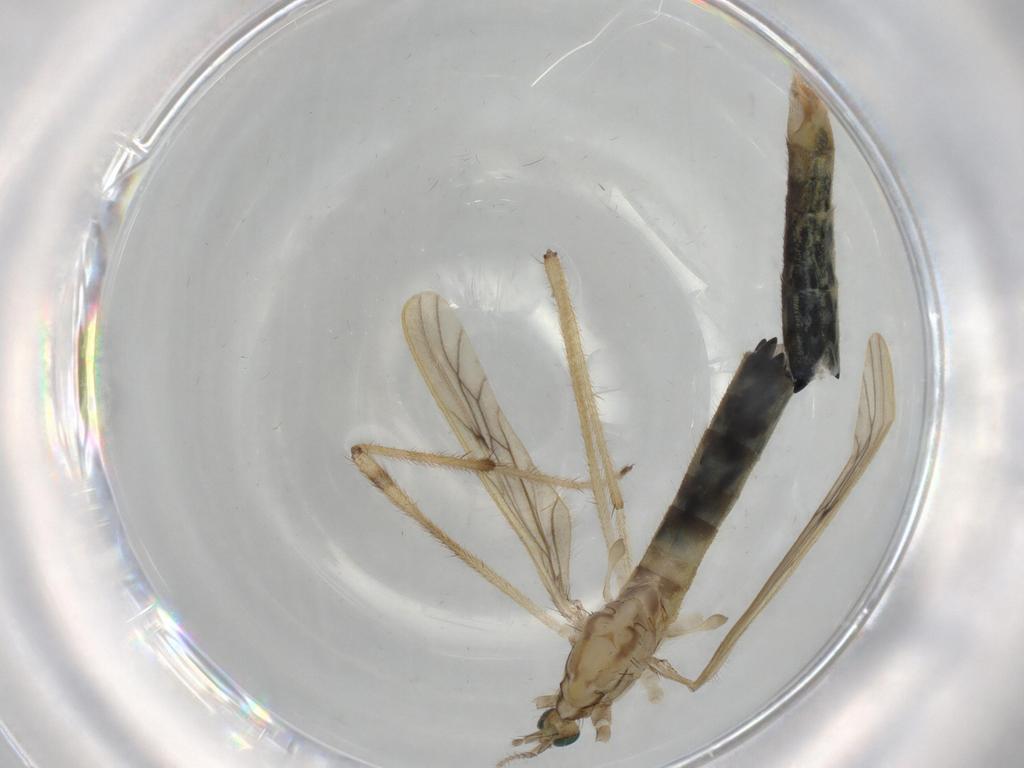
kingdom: Animalia
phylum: Arthropoda
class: Insecta
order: Diptera
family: Limoniidae
